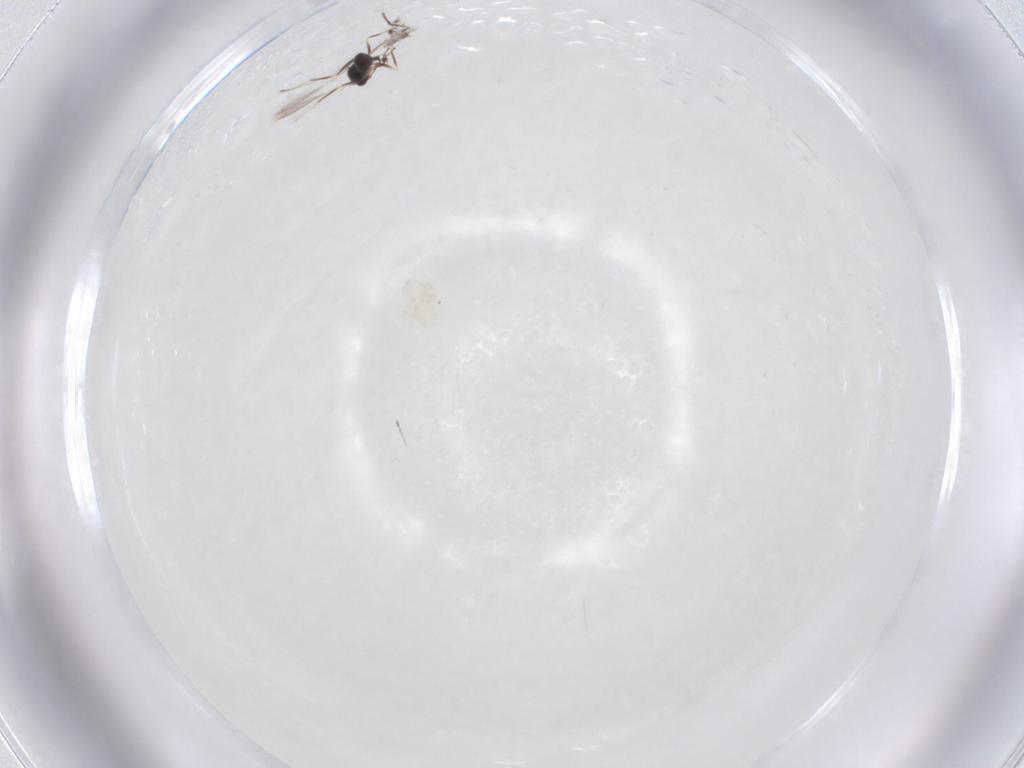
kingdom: Animalia
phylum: Arthropoda
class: Insecta
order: Hymenoptera
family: Mymaridae
